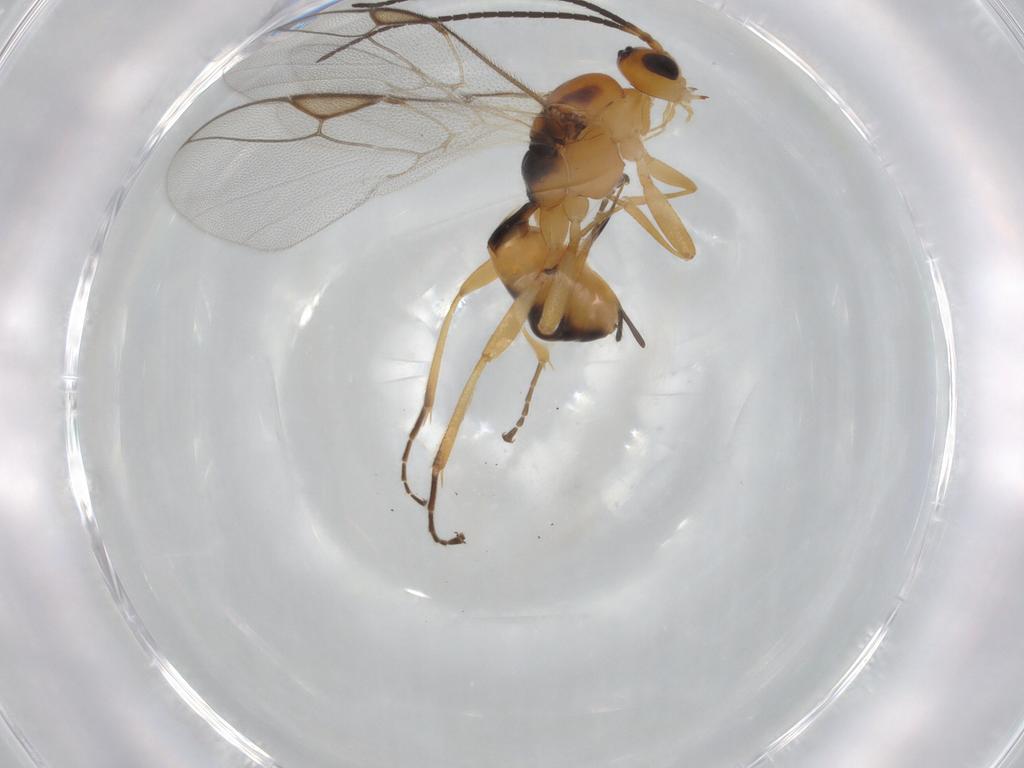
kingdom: Animalia
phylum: Arthropoda
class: Insecta
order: Hymenoptera
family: Braconidae
